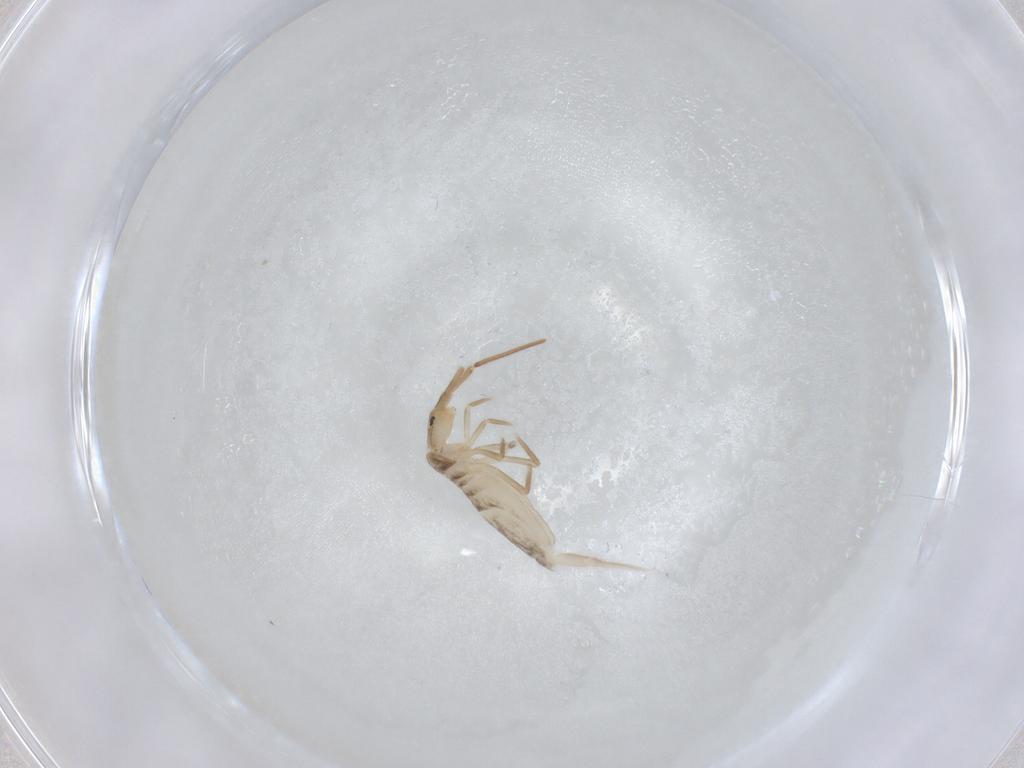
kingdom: Animalia
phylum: Arthropoda
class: Collembola
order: Entomobryomorpha
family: Entomobryidae
